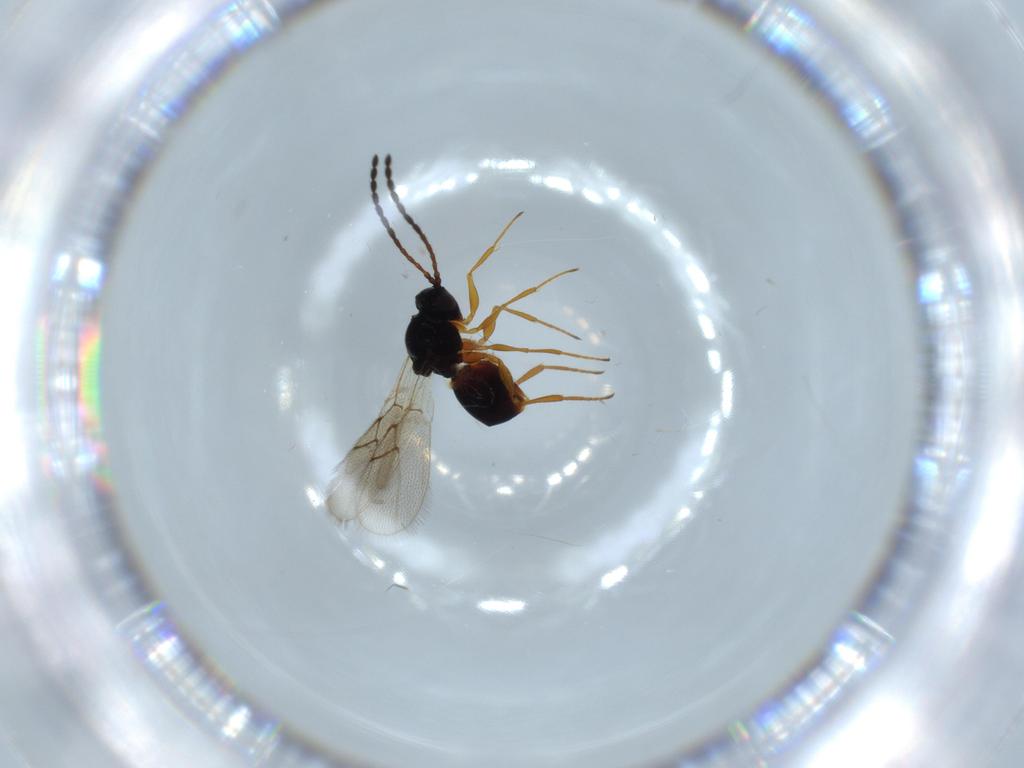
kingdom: Animalia
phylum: Arthropoda
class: Insecta
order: Hymenoptera
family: Figitidae
